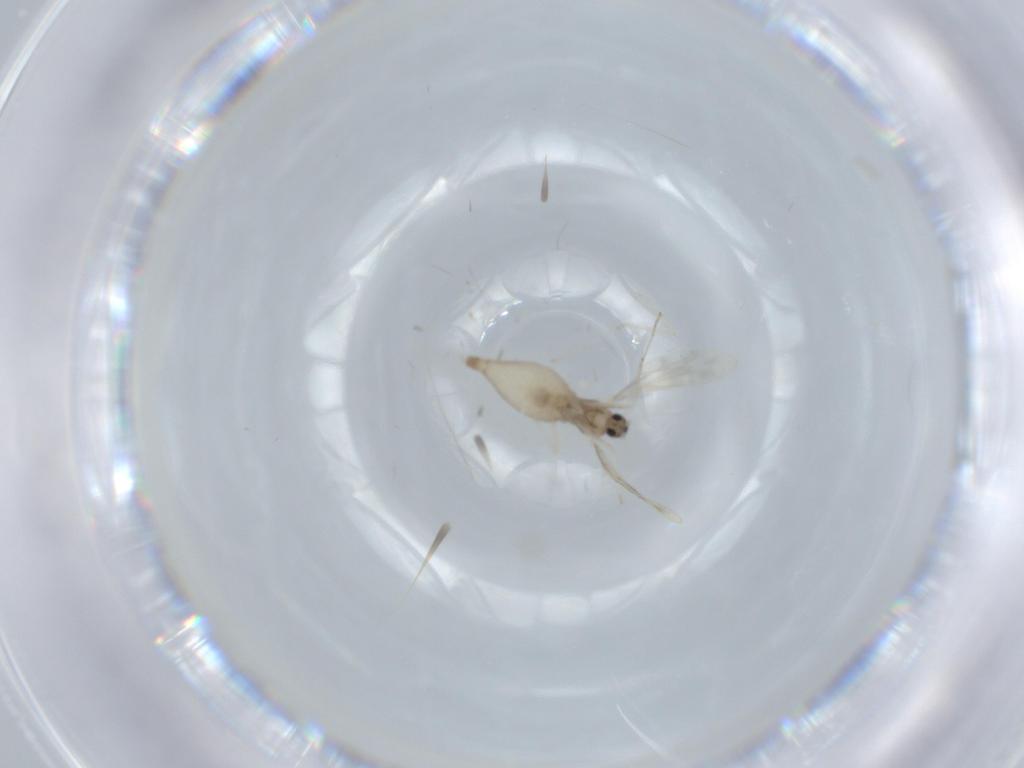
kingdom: Animalia
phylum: Arthropoda
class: Insecta
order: Diptera
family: Cecidomyiidae
